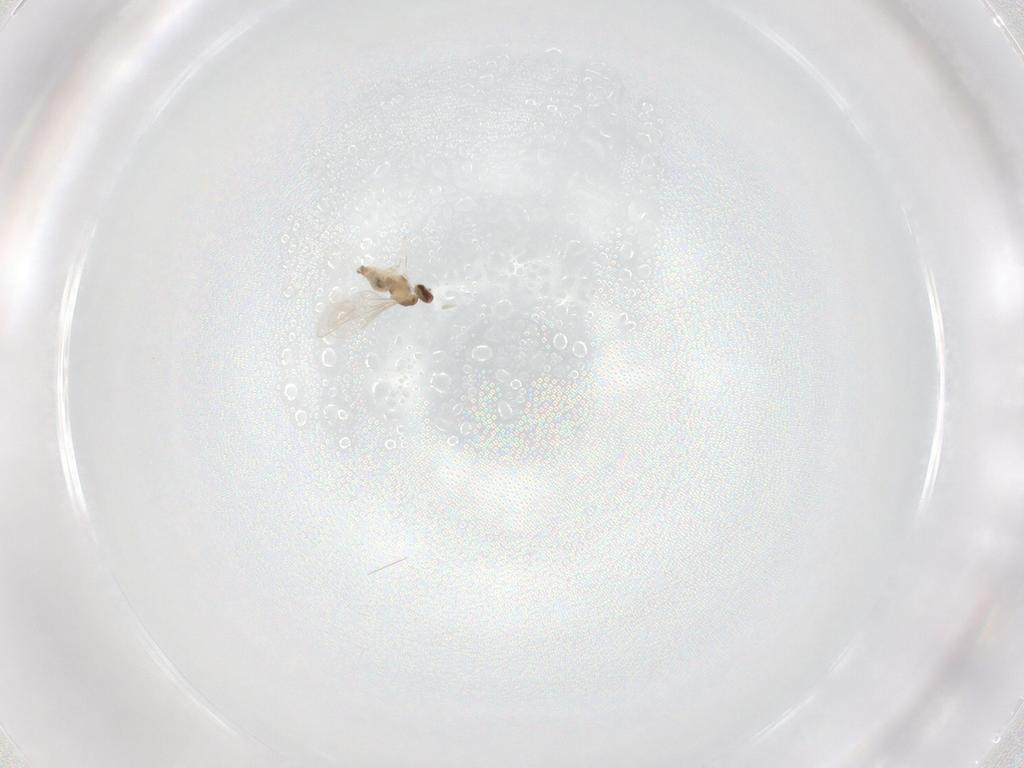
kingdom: Animalia
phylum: Arthropoda
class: Insecta
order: Diptera
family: Cecidomyiidae
